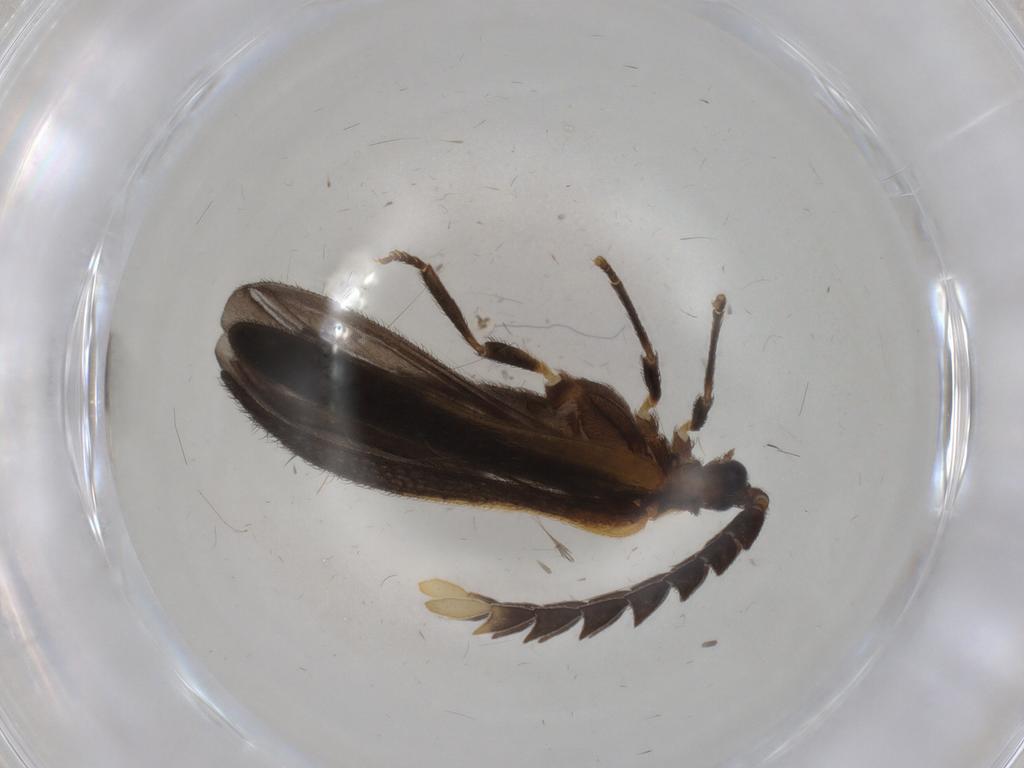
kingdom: Animalia
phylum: Arthropoda
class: Insecta
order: Coleoptera
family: Lycidae
